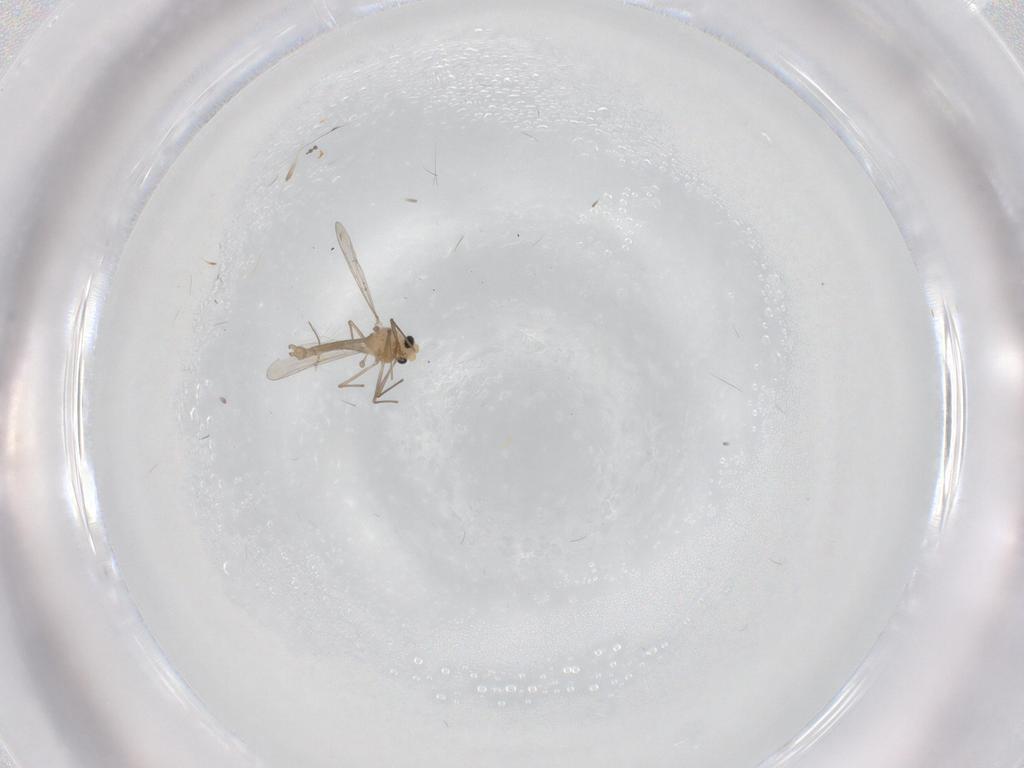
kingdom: Animalia
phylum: Arthropoda
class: Insecta
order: Diptera
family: Chironomidae
